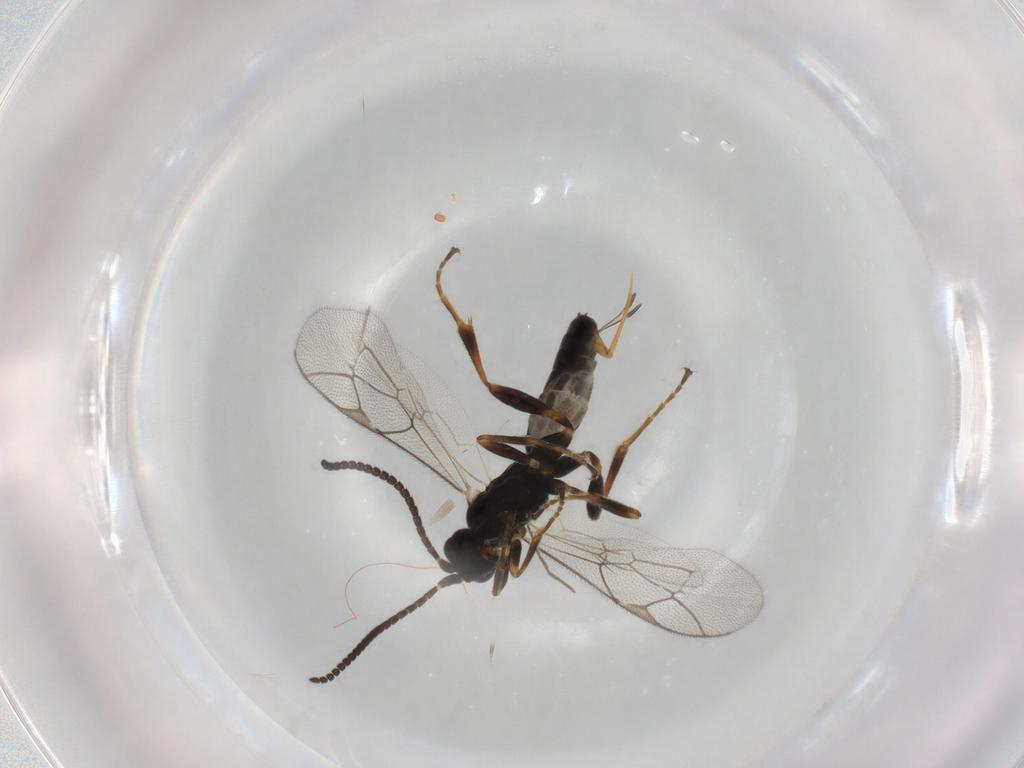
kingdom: Animalia
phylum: Arthropoda
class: Insecta
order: Hymenoptera
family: Ichneumonidae
